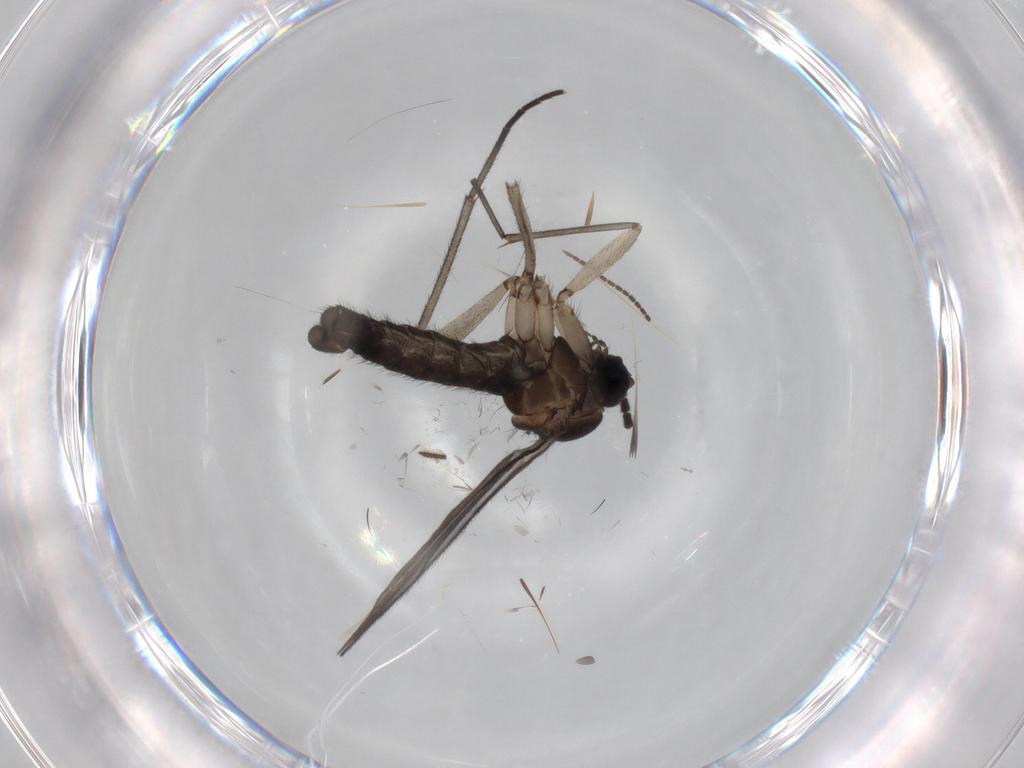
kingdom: Animalia
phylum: Arthropoda
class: Insecta
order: Diptera
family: Sciaridae
